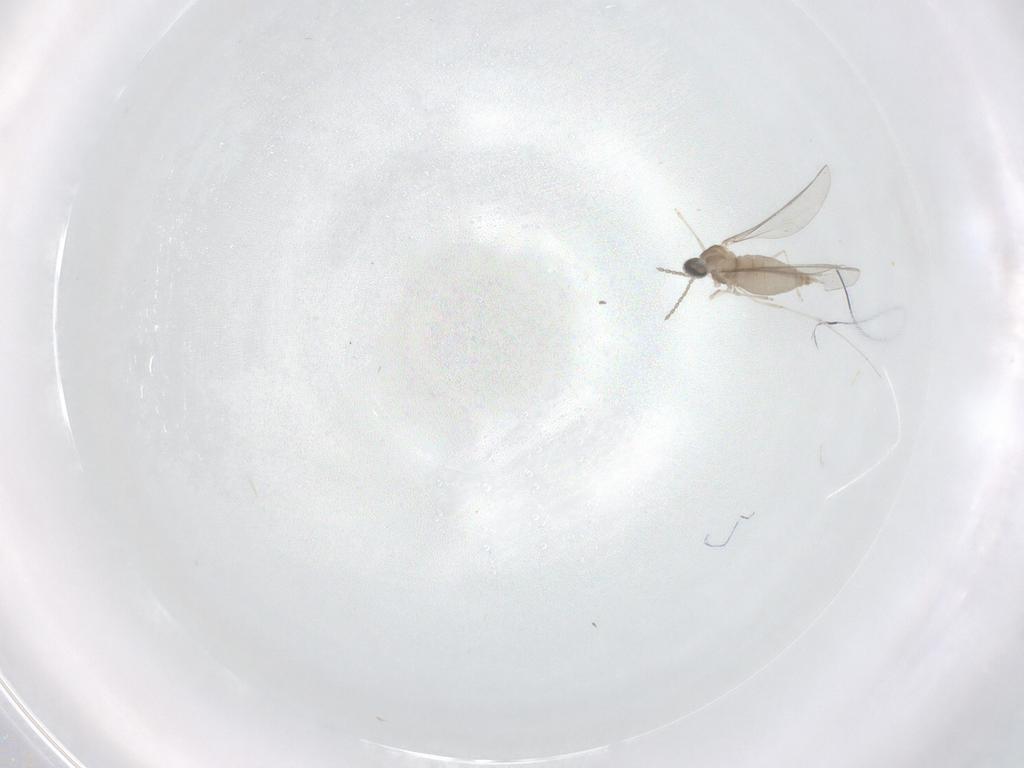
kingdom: Animalia
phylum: Arthropoda
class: Insecta
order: Diptera
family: Cecidomyiidae
